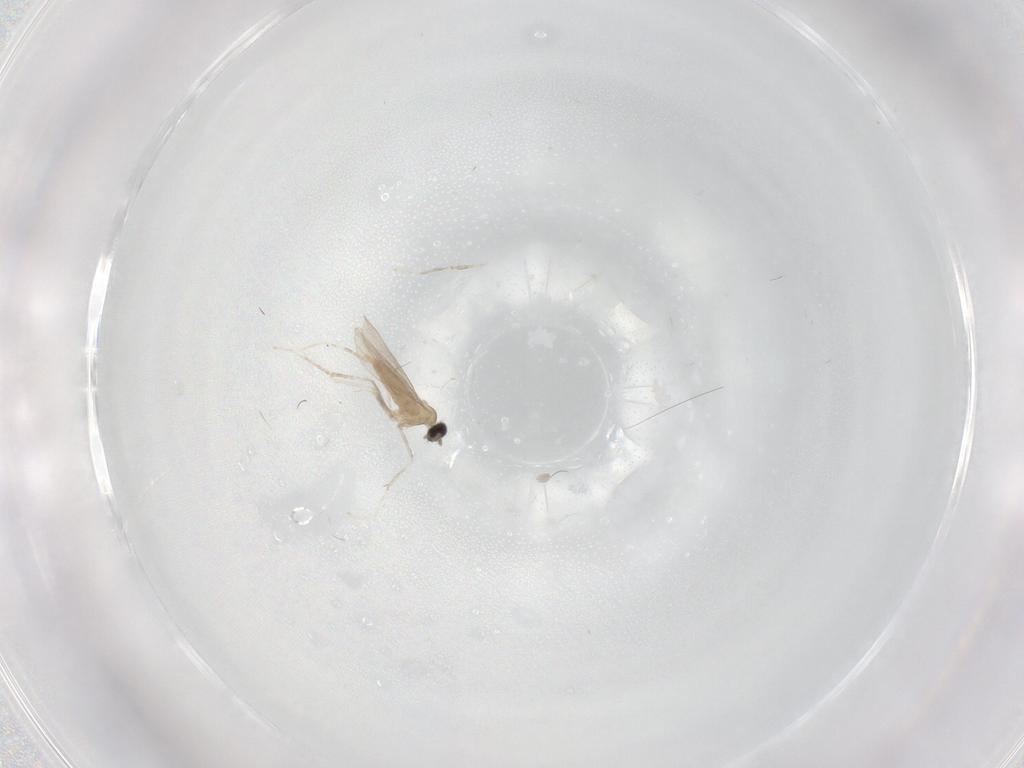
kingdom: Animalia
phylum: Arthropoda
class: Insecta
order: Diptera
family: Cecidomyiidae
